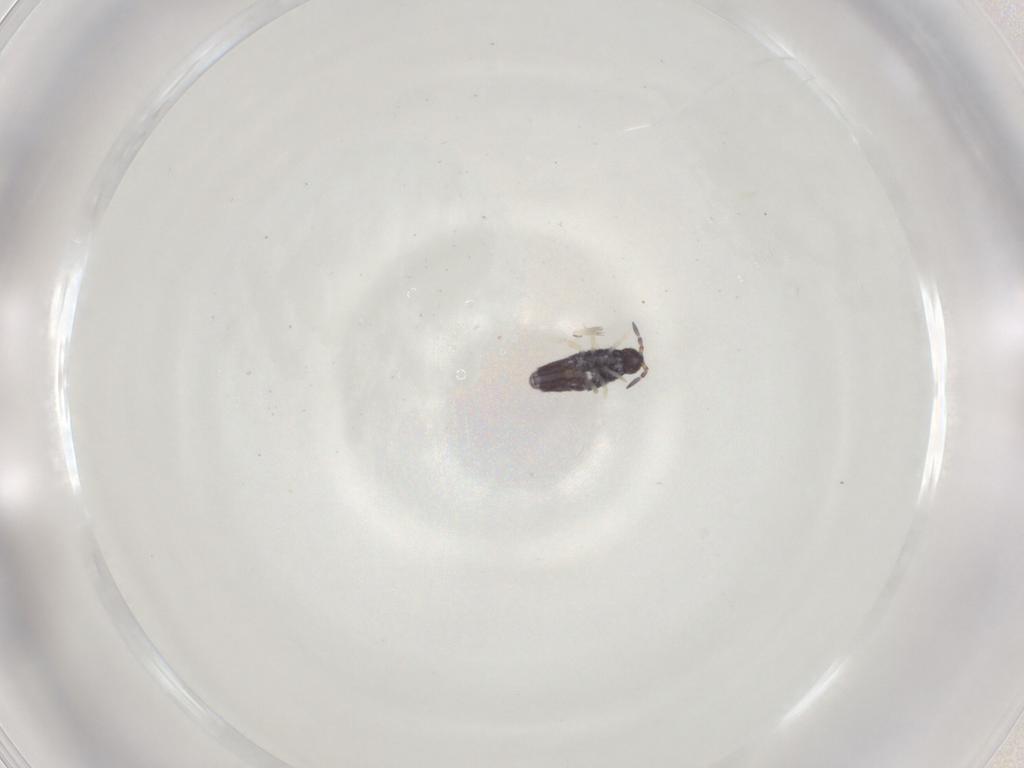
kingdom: Animalia
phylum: Arthropoda
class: Collembola
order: Entomobryomorpha
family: Entomobryidae
